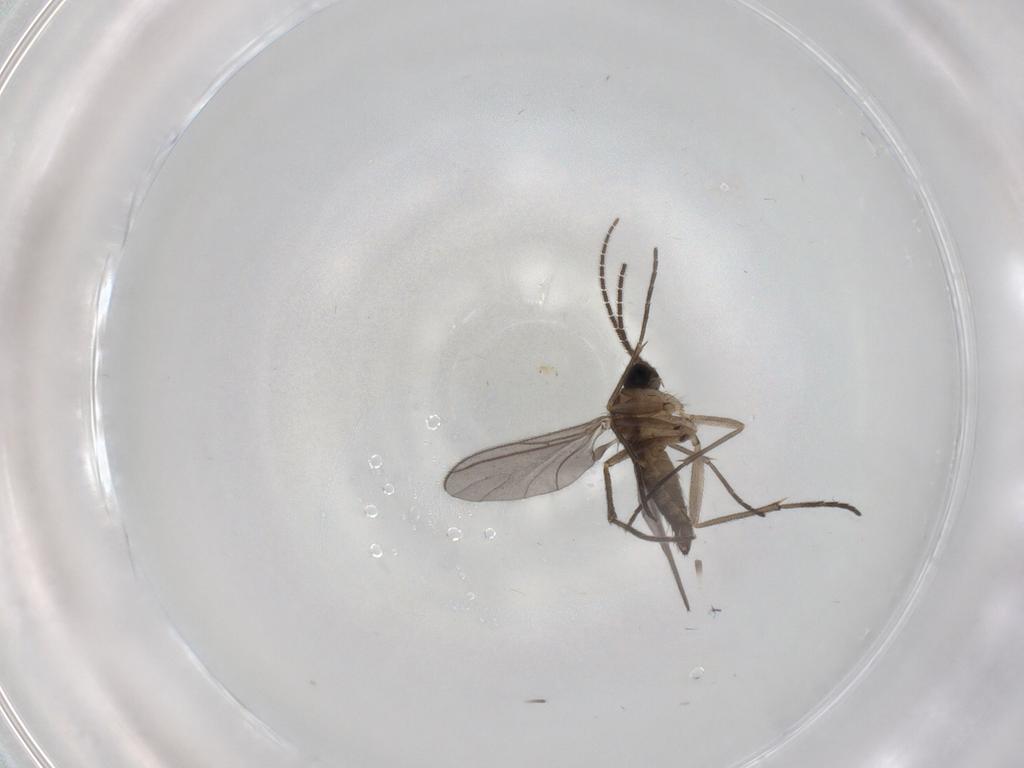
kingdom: Animalia
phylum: Arthropoda
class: Insecta
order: Diptera
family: Sciaridae
